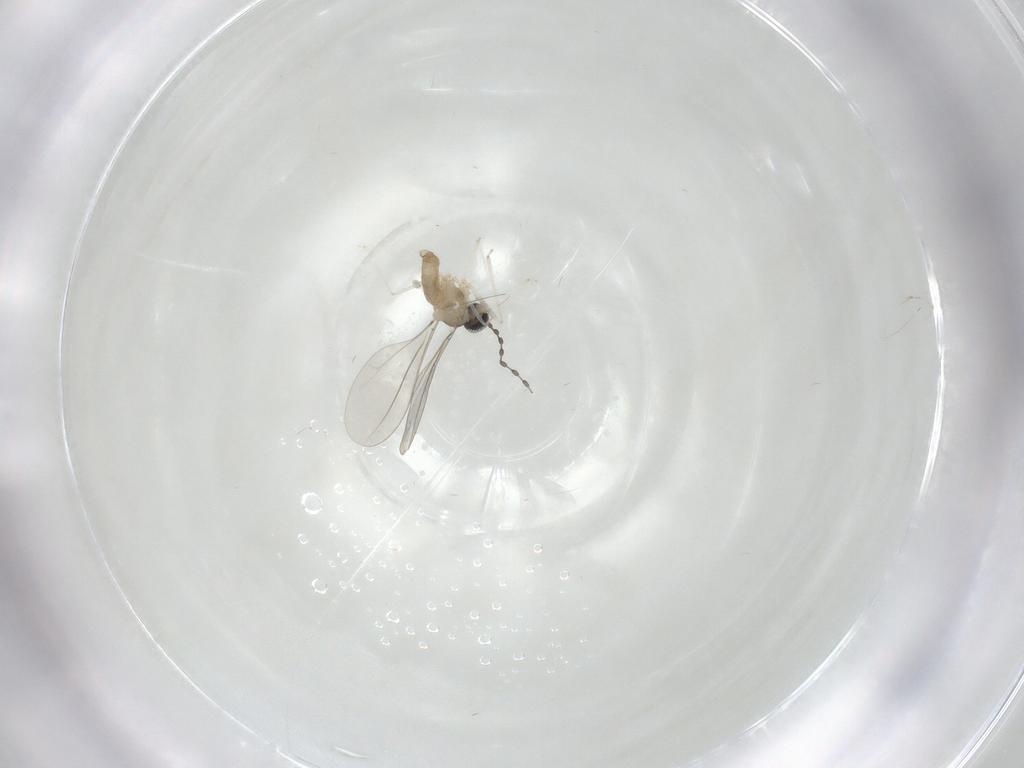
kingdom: Animalia
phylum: Arthropoda
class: Insecta
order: Diptera
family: Cecidomyiidae
